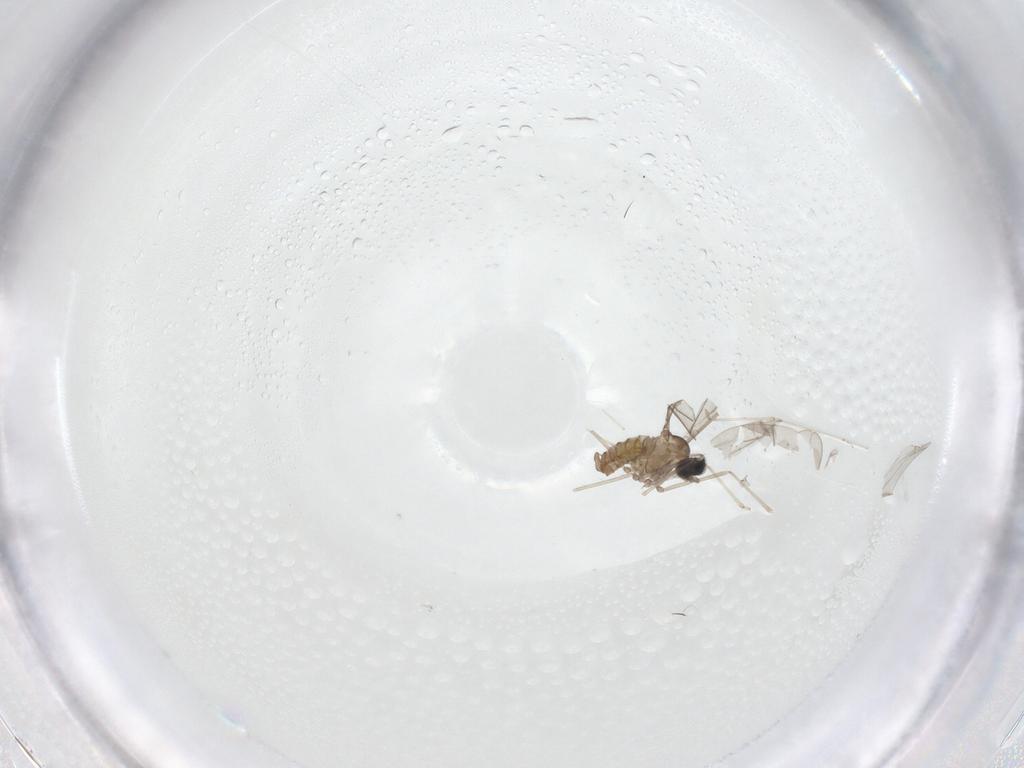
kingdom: Animalia
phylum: Arthropoda
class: Insecta
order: Diptera
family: Cecidomyiidae
